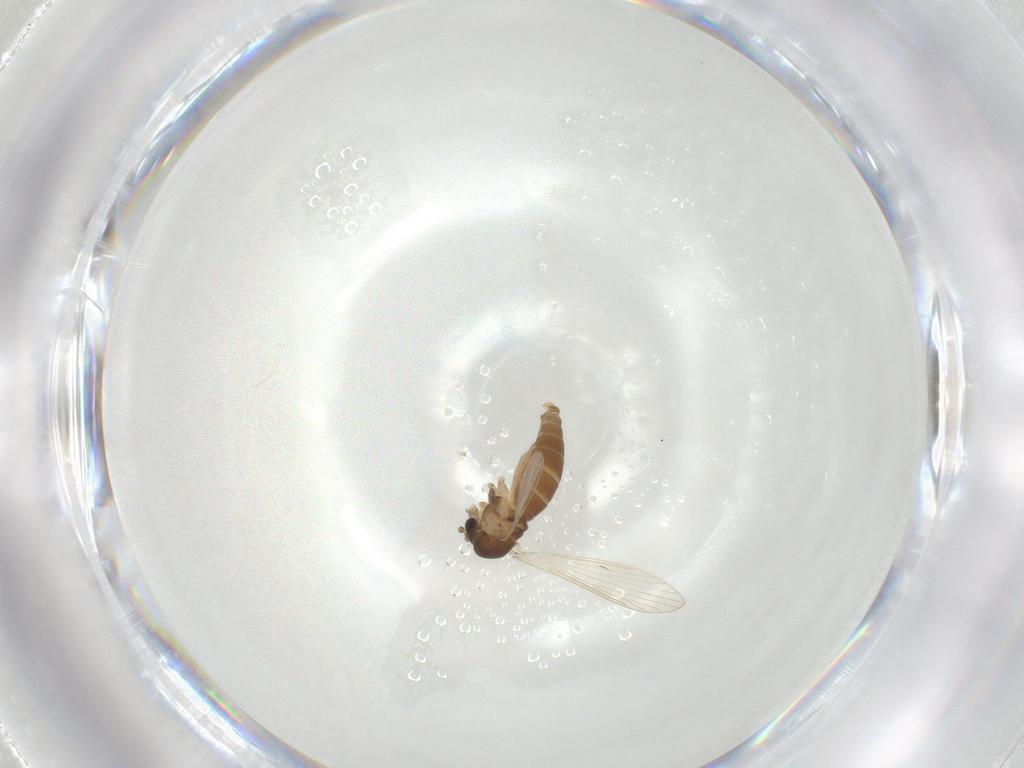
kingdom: Animalia
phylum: Arthropoda
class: Insecta
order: Diptera
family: Psychodidae
